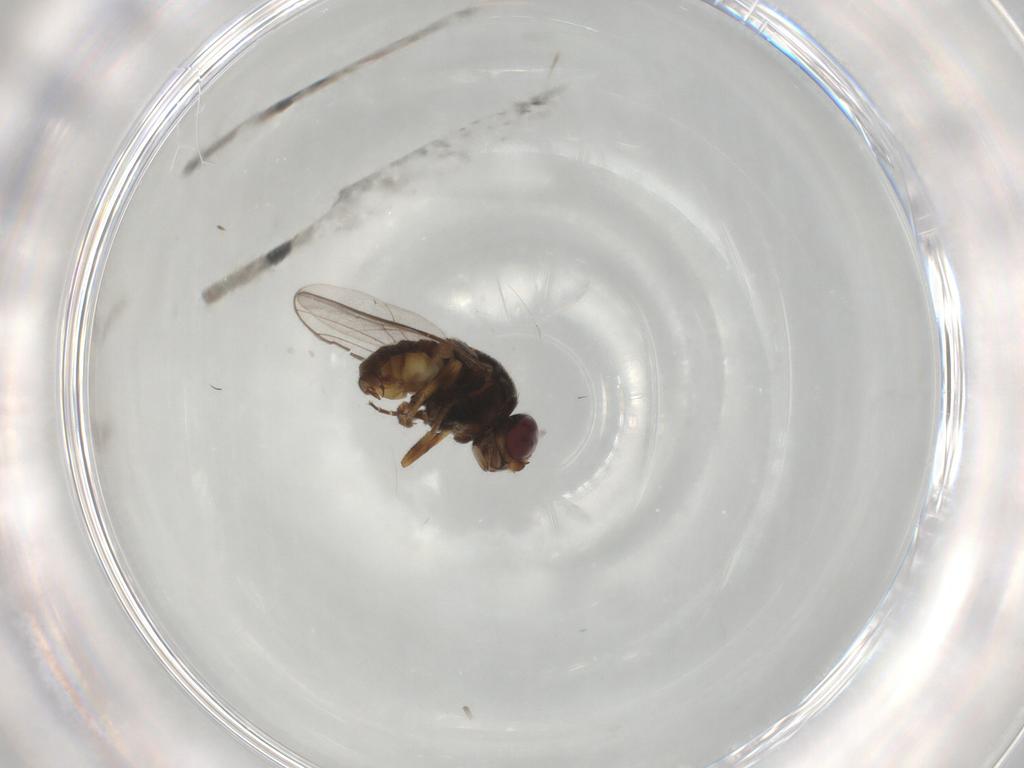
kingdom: Animalia
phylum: Arthropoda
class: Insecta
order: Diptera
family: Chloropidae
